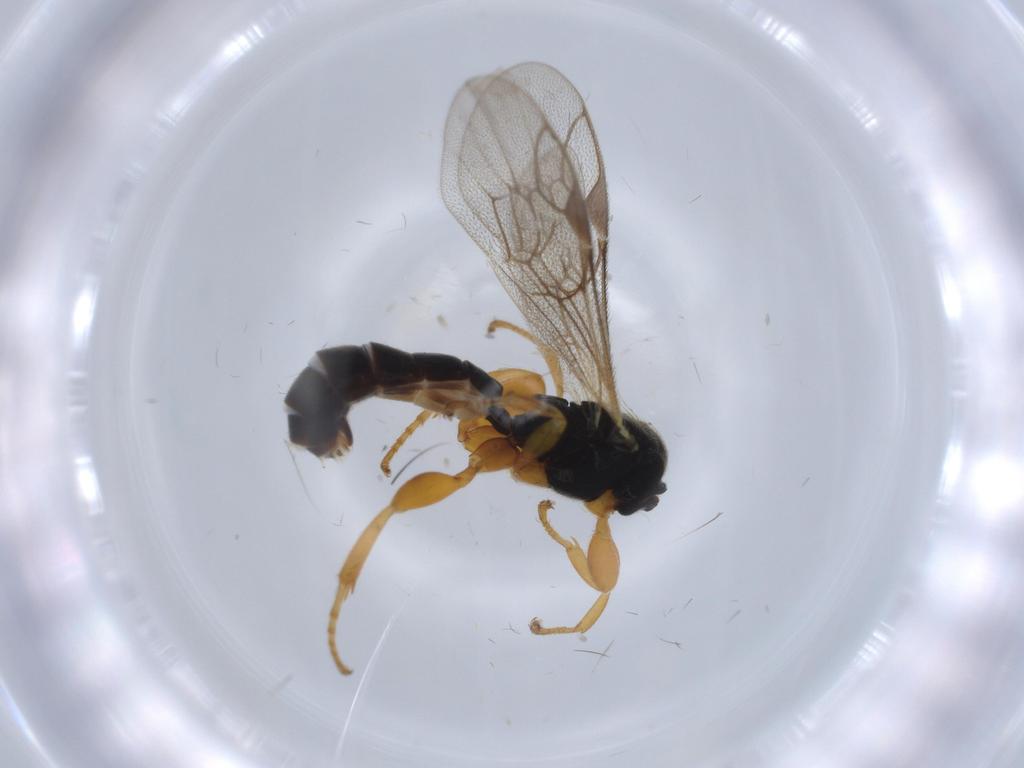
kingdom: Animalia
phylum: Arthropoda
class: Insecta
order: Hymenoptera
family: Ichneumonidae
